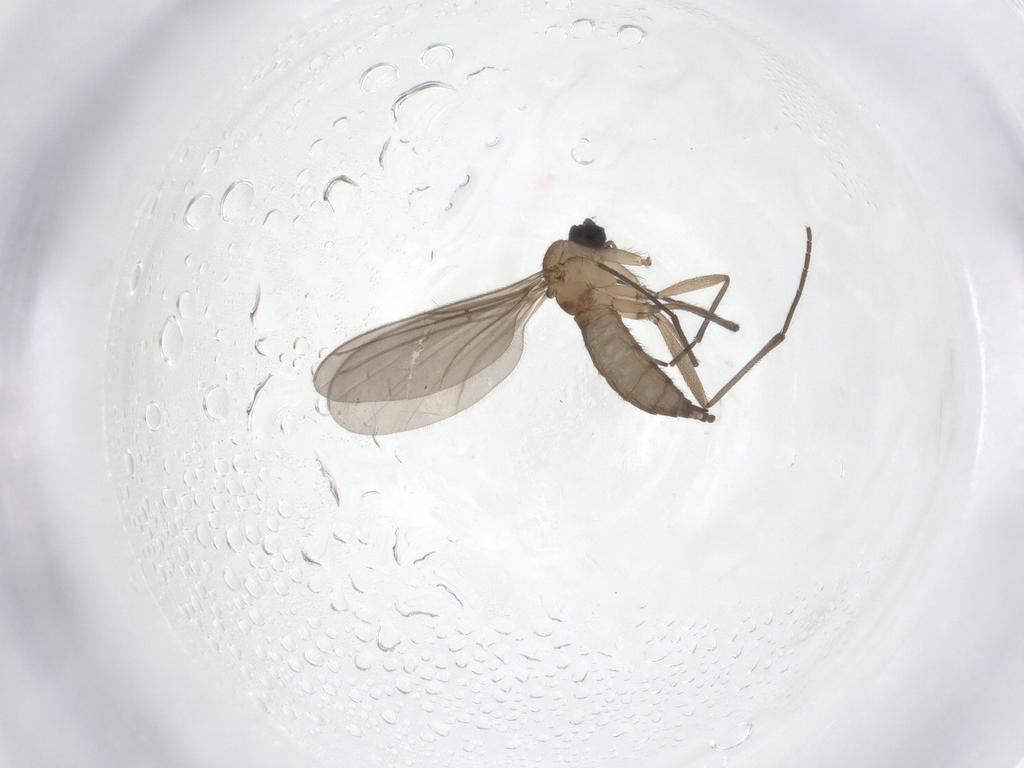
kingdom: Animalia
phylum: Arthropoda
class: Insecta
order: Diptera
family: Sciaridae
